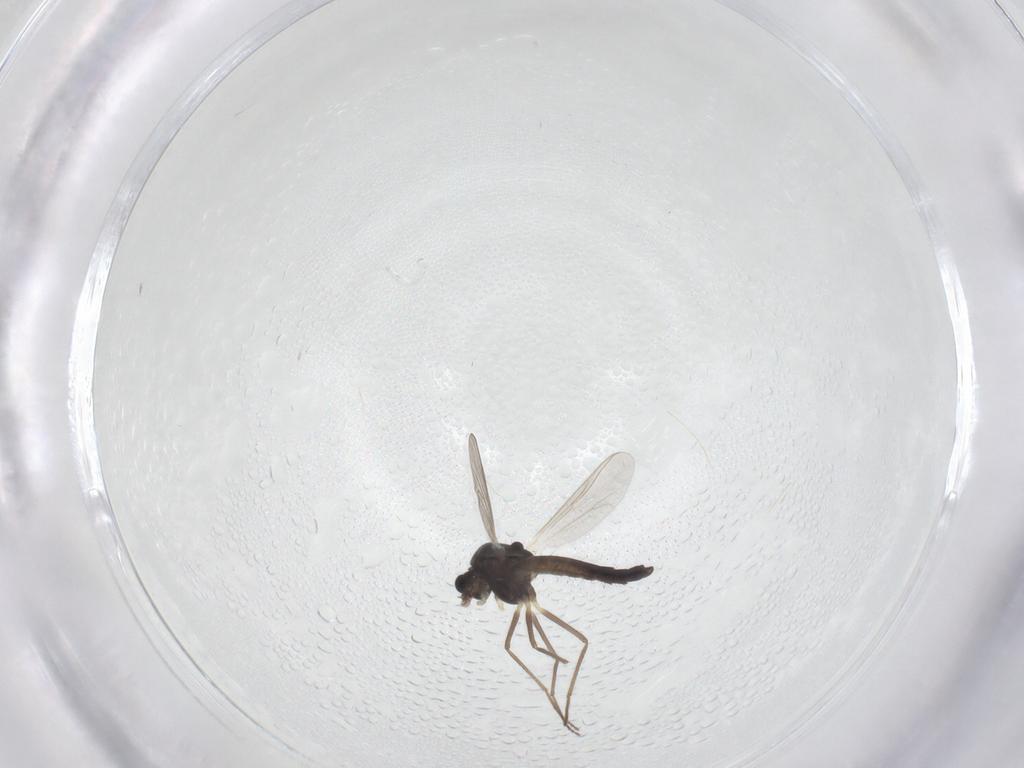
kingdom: Animalia
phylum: Arthropoda
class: Insecta
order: Diptera
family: Chironomidae
